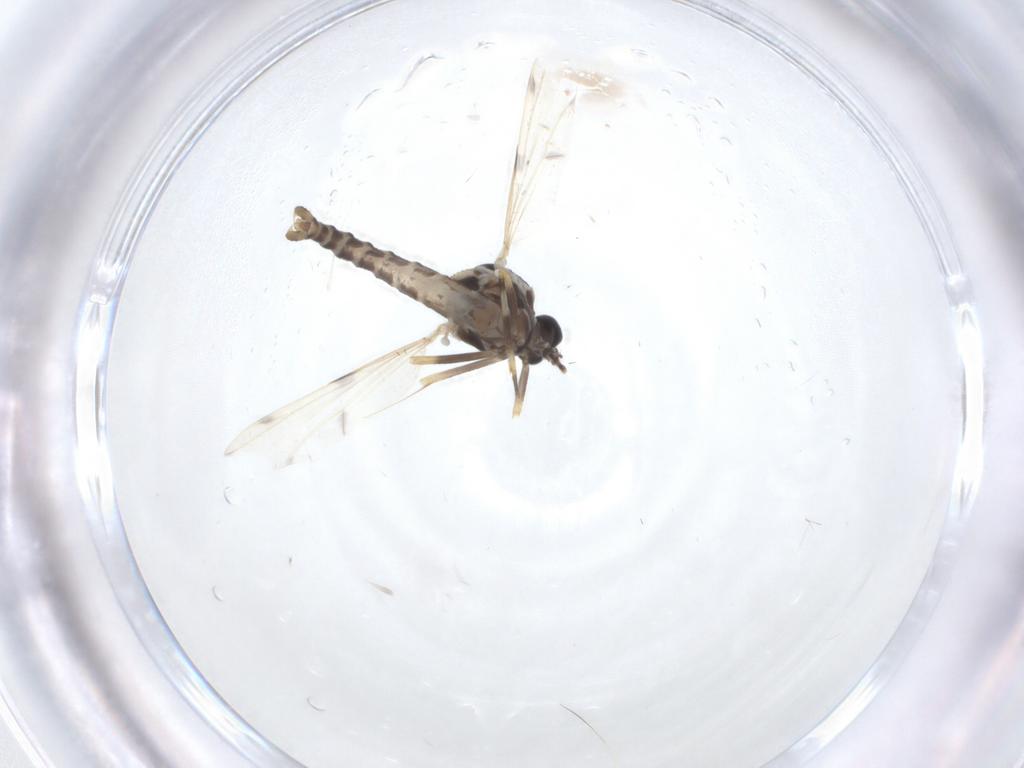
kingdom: Animalia
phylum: Arthropoda
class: Insecta
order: Diptera
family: Ceratopogonidae
